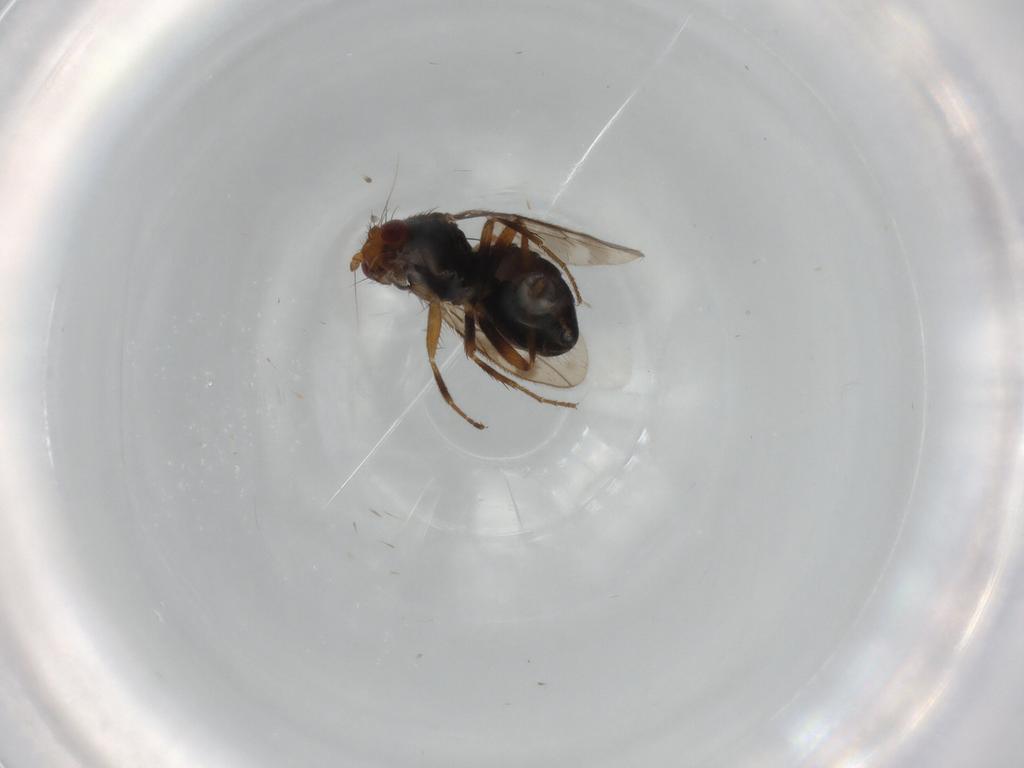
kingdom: Animalia
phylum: Arthropoda
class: Insecta
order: Diptera
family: Sphaeroceridae
